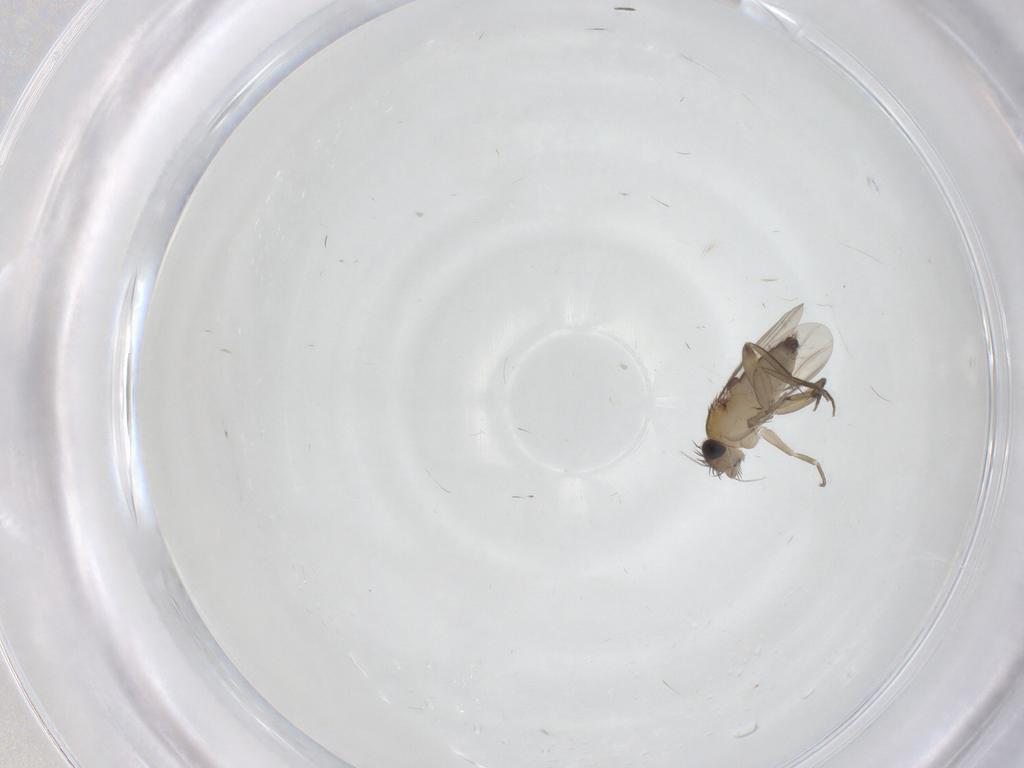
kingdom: Animalia
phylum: Arthropoda
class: Insecta
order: Diptera
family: Phoridae
